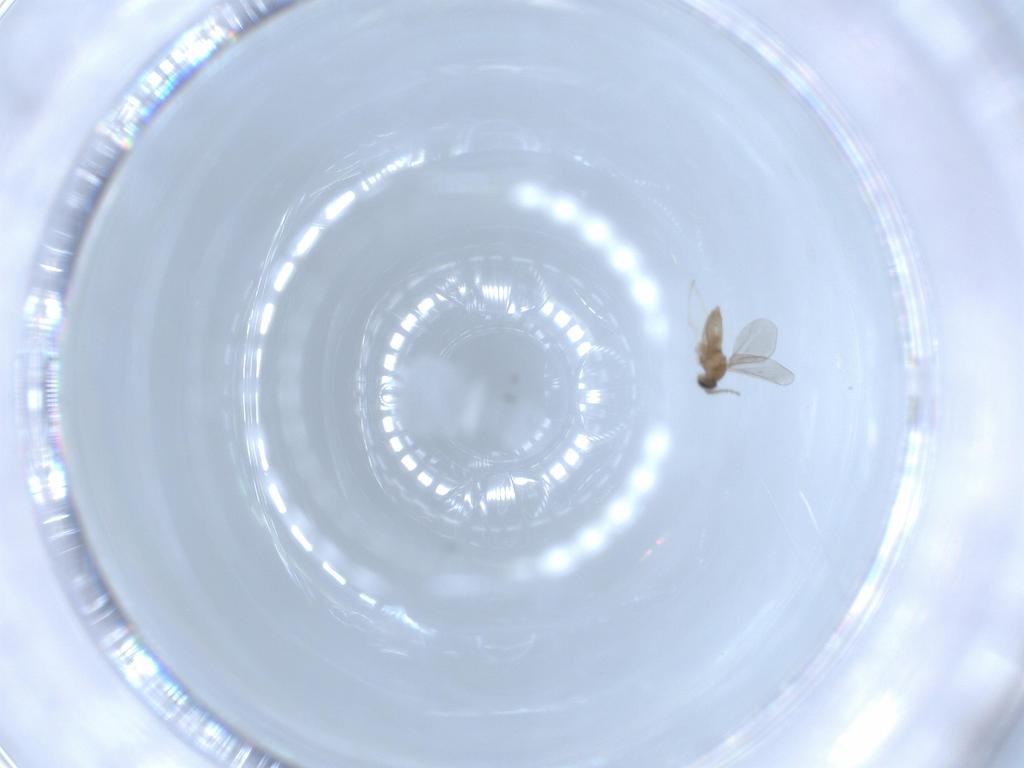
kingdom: Animalia
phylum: Arthropoda
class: Insecta
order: Diptera
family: Cecidomyiidae
